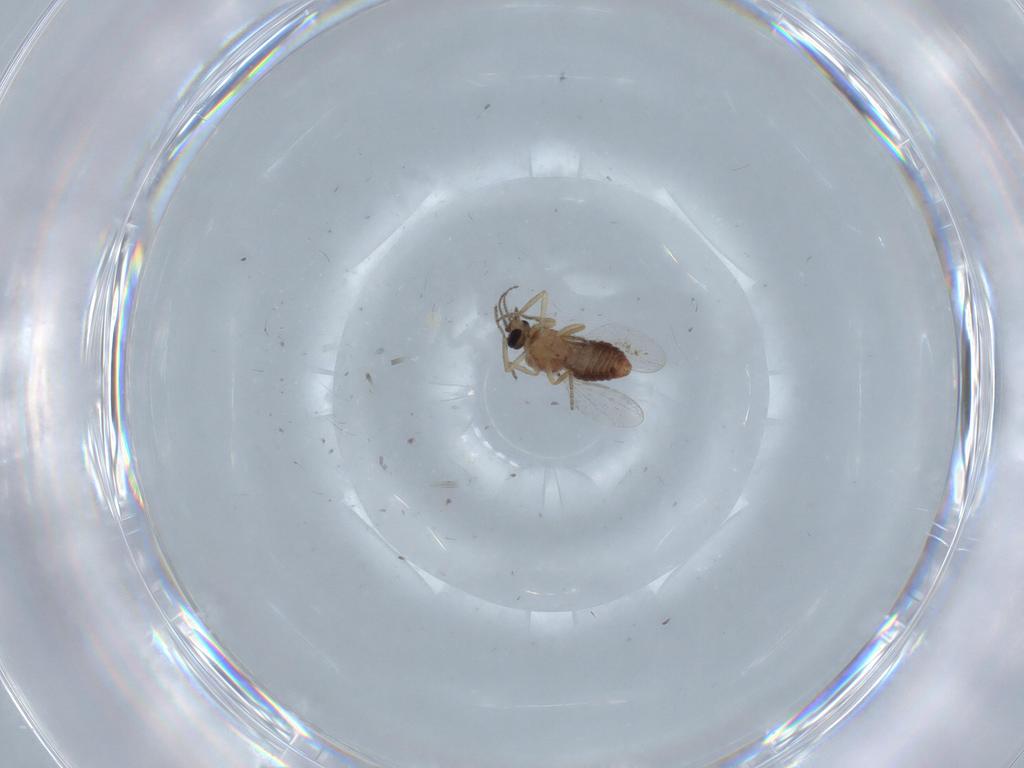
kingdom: Animalia
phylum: Arthropoda
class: Insecta
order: Diptera
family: Ceratopogonidae
